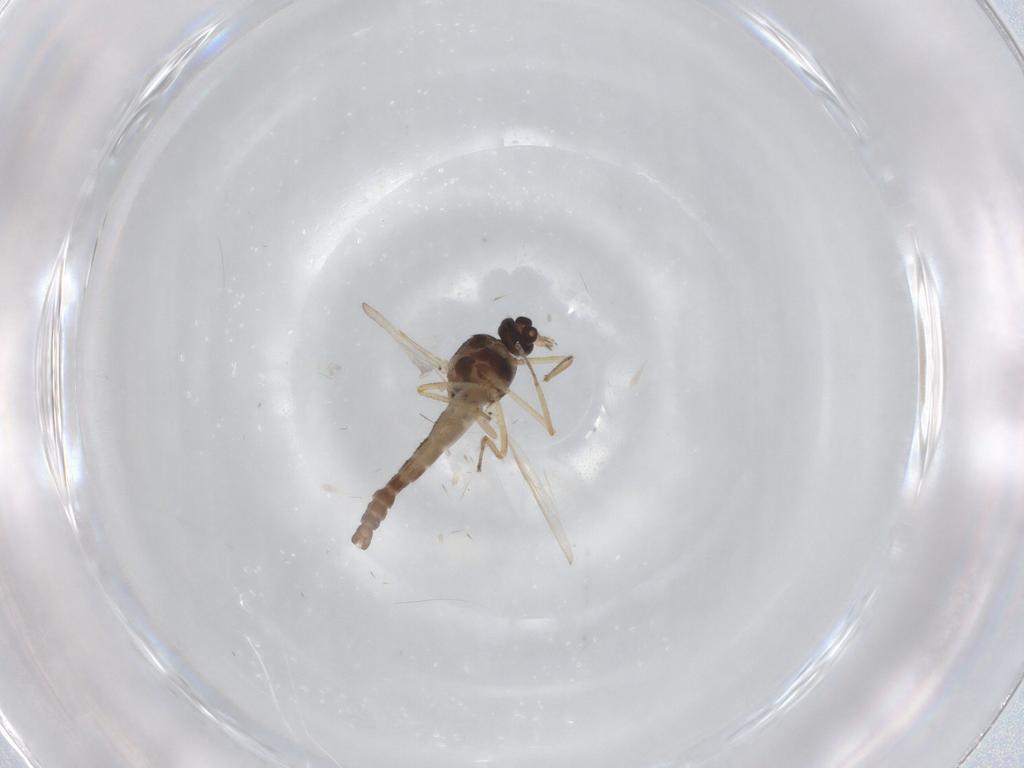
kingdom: Animalia
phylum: Arthropoda
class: Insecta
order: Diptera
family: Ceratopogonidae
